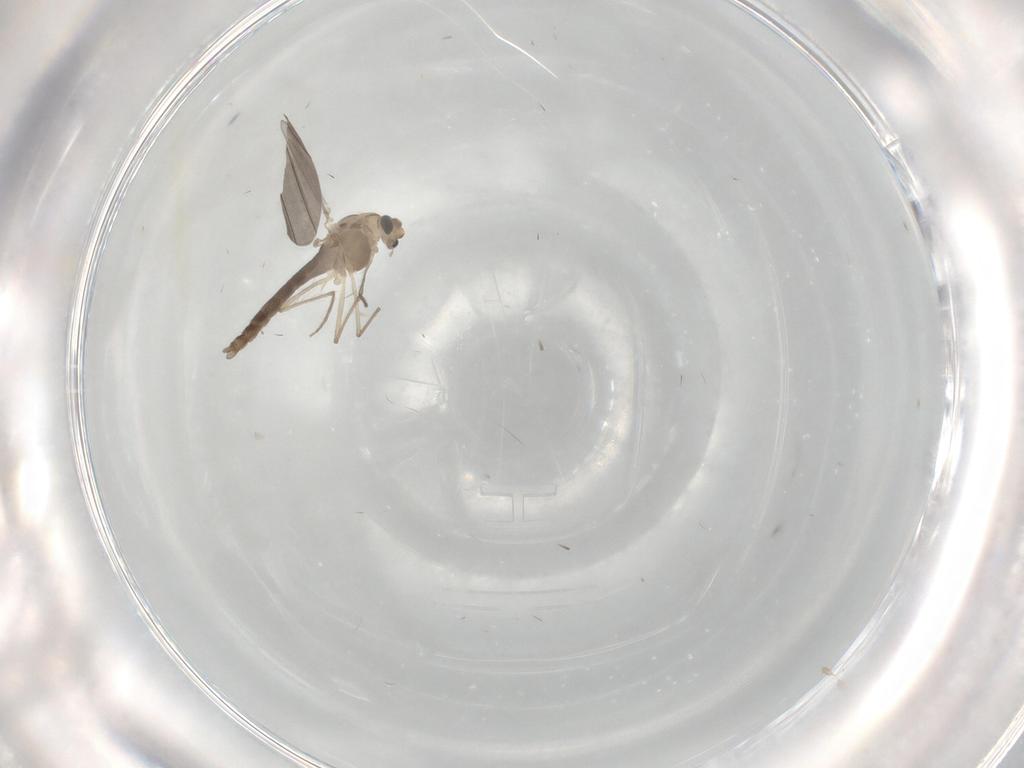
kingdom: Animalia
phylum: Arthropoda
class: Insecta
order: Diptera
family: Chironomidae
